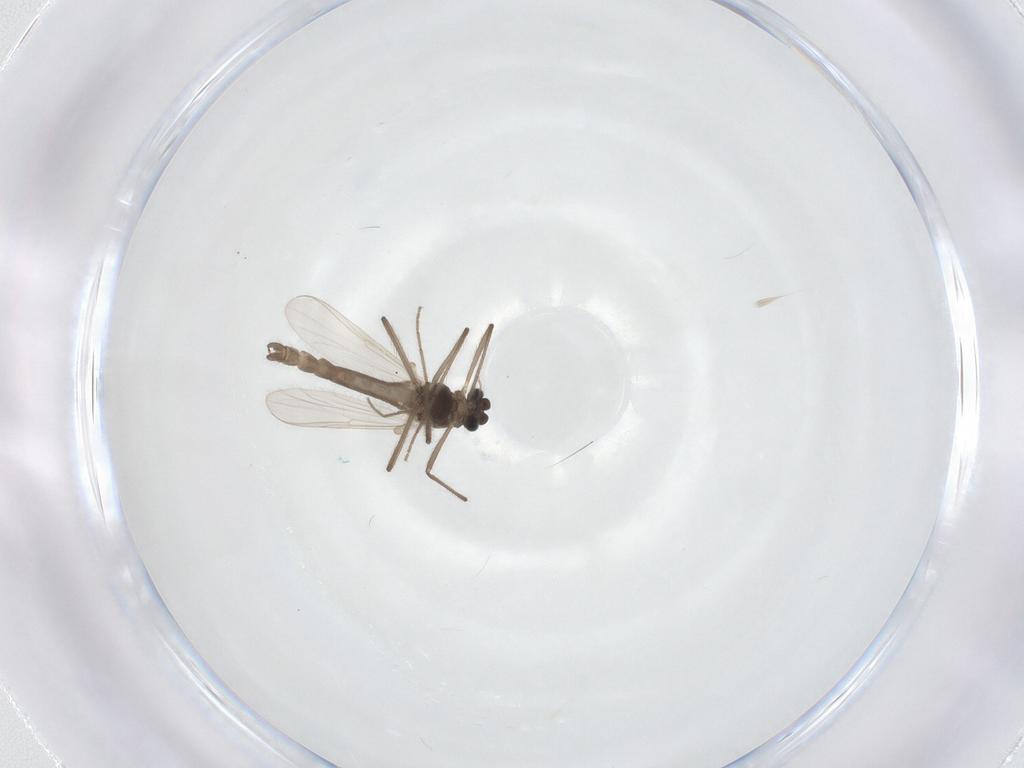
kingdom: Animalia
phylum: Arthropoda
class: Insecta
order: Diptera
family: Chironomidae
